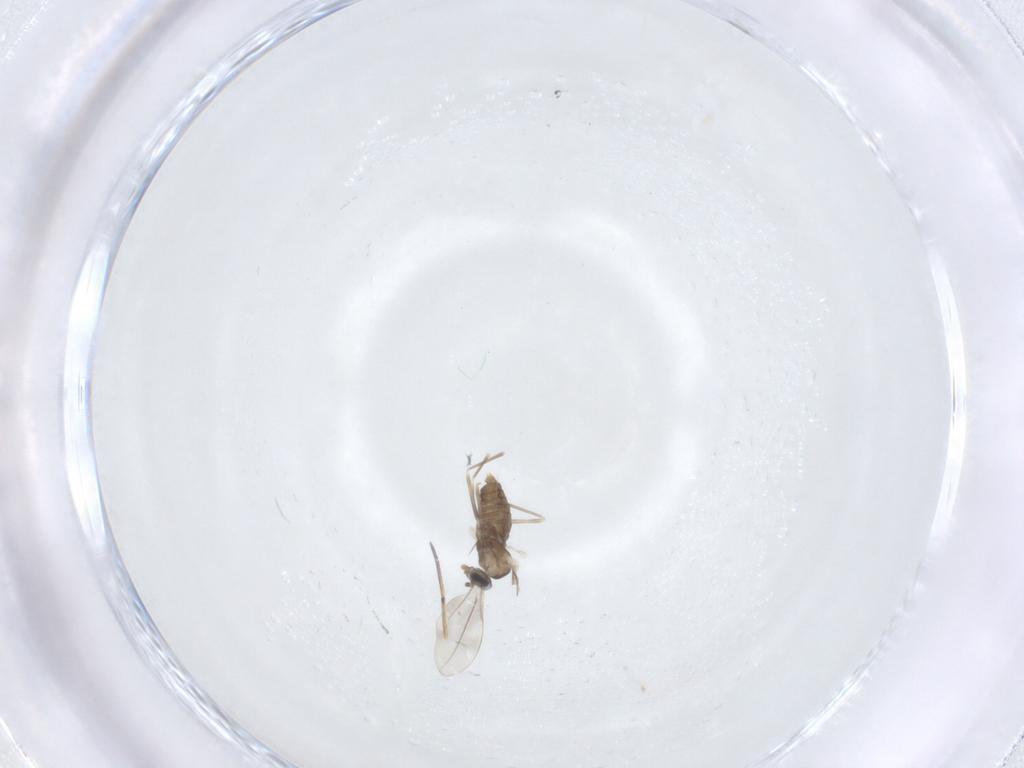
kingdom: Animalia
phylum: Arthropoda
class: Insecta
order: Diptera
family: Cecidomyiidae
